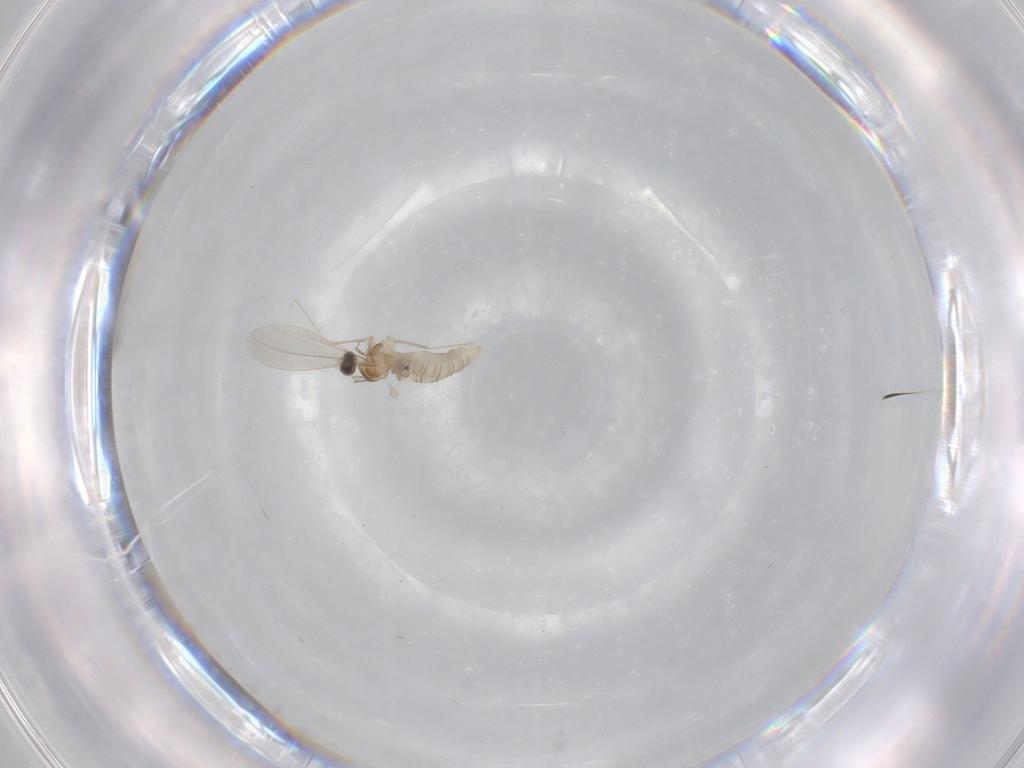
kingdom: Animalia
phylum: Arthropoda
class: Insecta
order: Diptera
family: Cecidomyiidae
